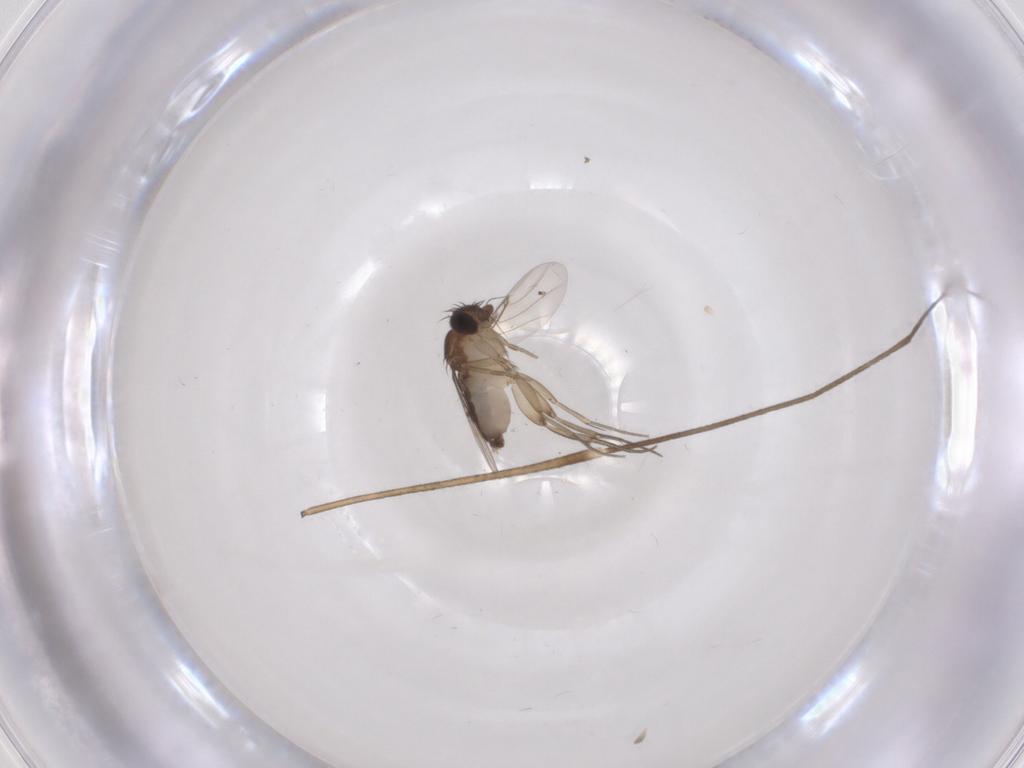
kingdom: Animalia
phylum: Arthropoda
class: Insecta
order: Diptera
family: Phoridae
